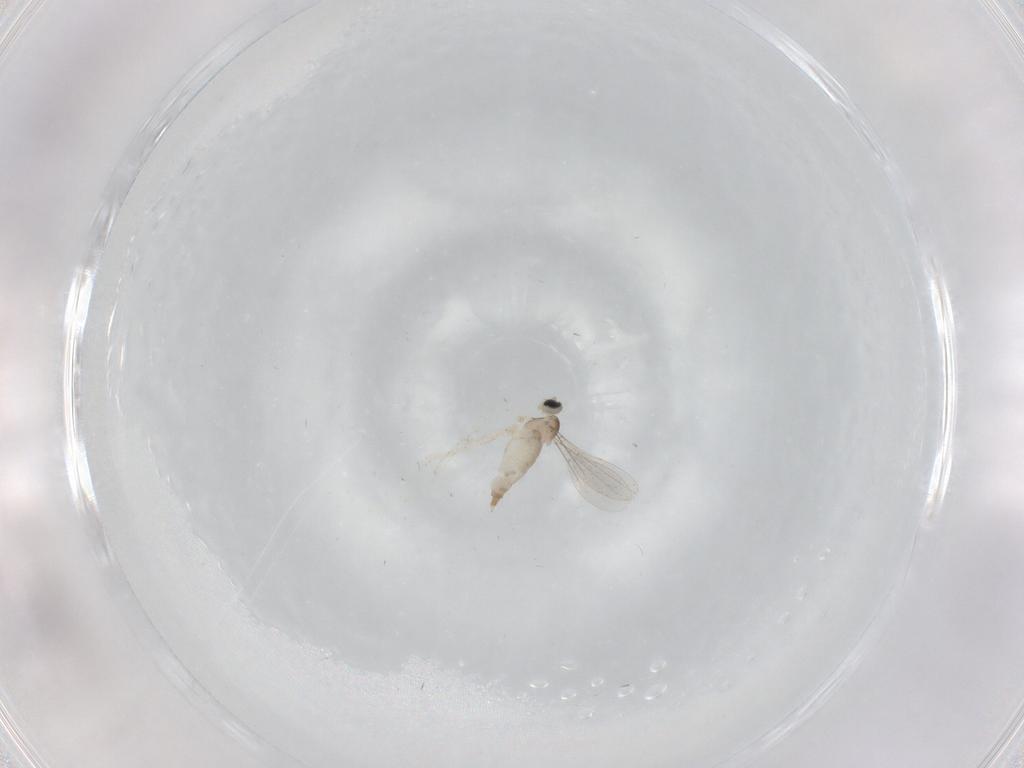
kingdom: Animalia
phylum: Arthropoda
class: Insecta
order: Diptera
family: Cecidomyiidae
